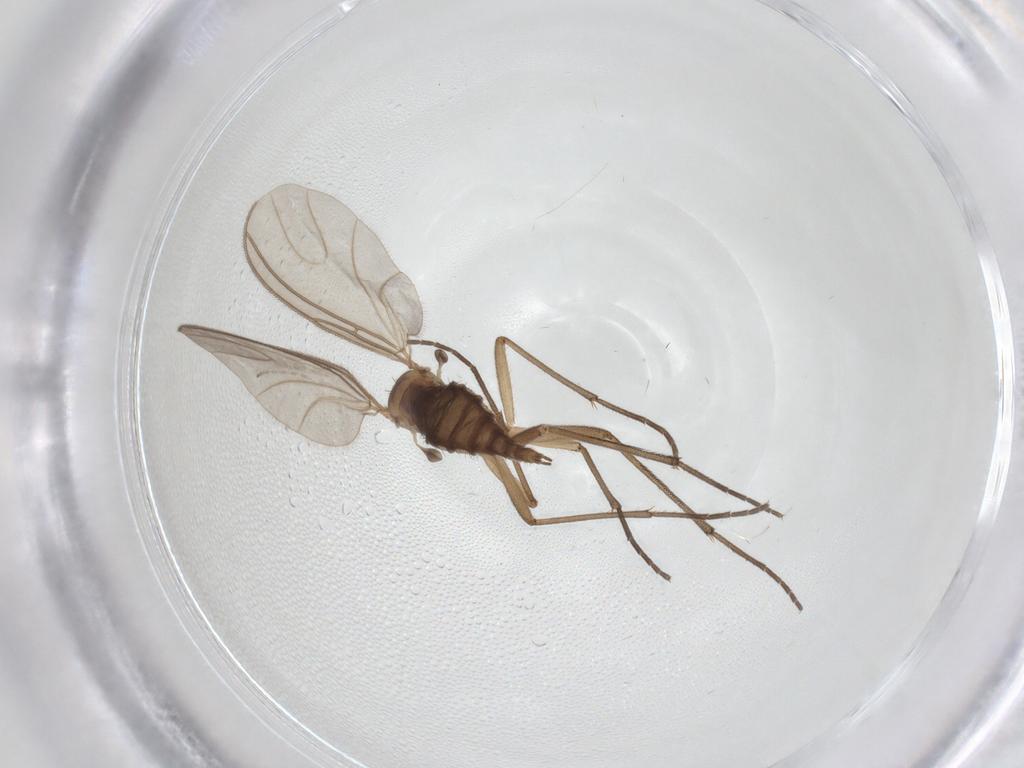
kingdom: Animalia
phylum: Arthropoda
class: Insecta
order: Diptera
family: Sciaridae
